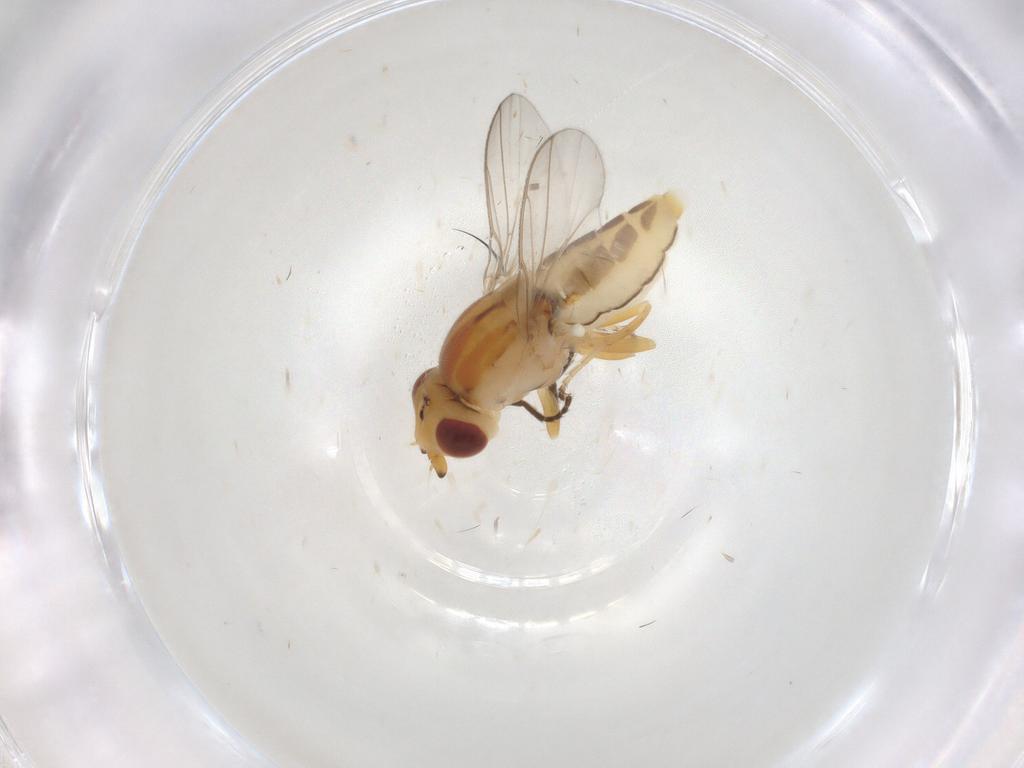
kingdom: Animalia
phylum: Arthropoda
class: Insecta
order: Diptera
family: Chloropidae
